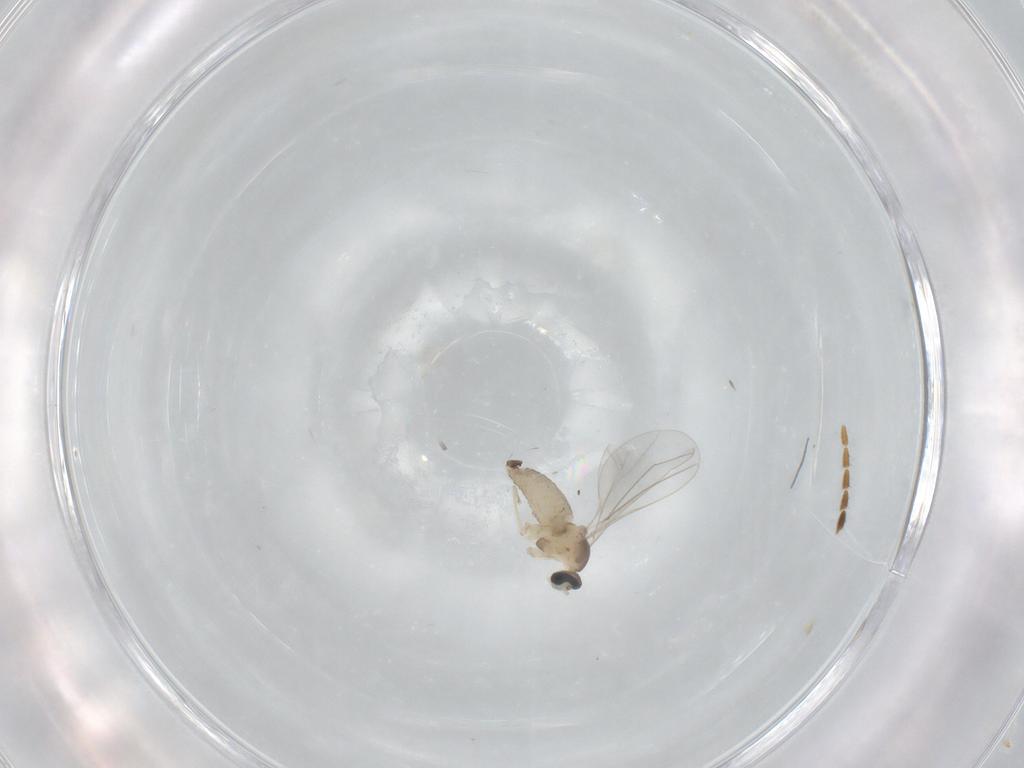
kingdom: Animalia
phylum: Arthropoda
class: Insecta
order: Diptera
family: Cecidomyiidae
